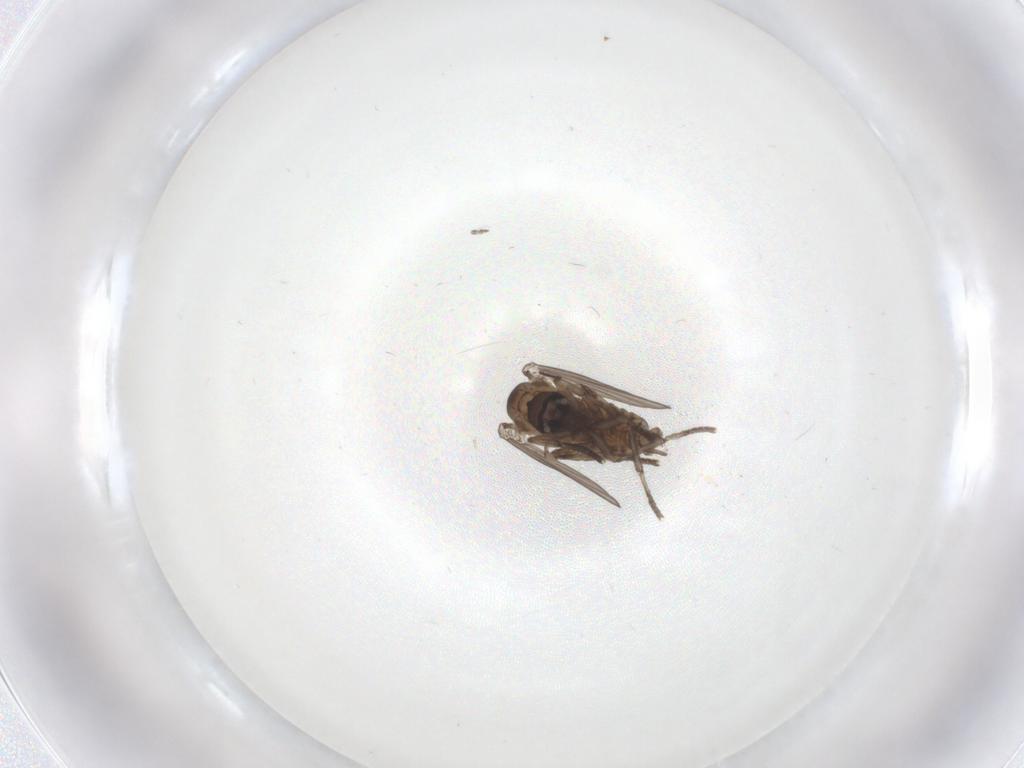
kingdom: Animalia
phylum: Arthropoda
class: Insecta
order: Diptera
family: Psychodidae
